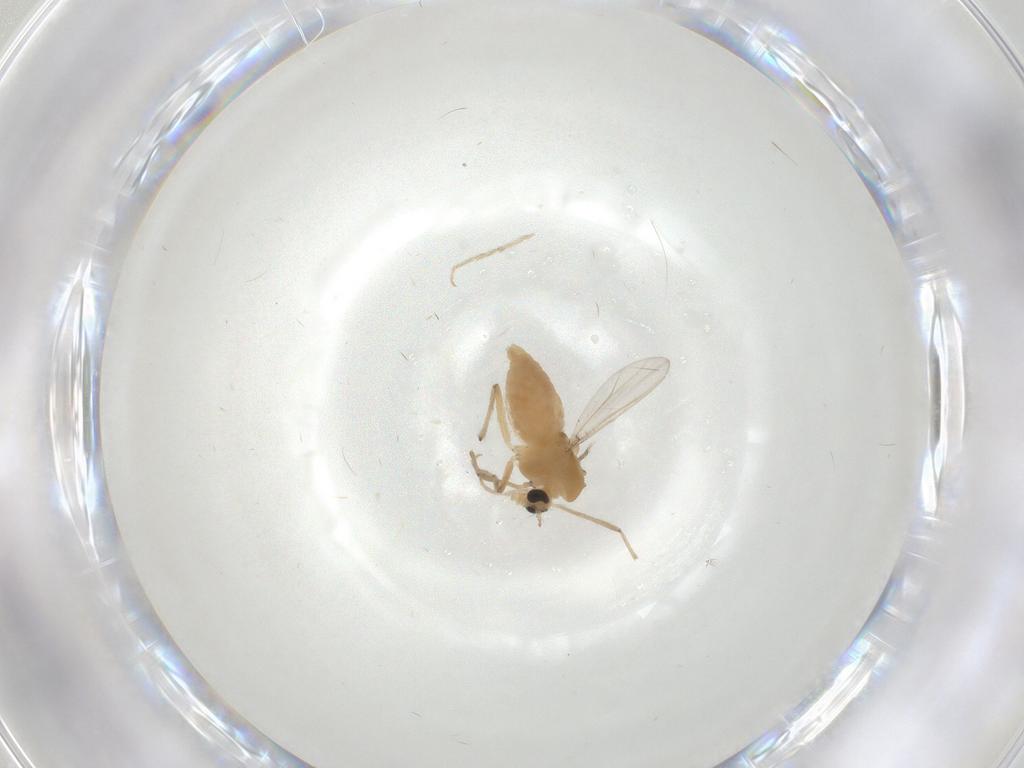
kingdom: Animalia
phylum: Arthropoda
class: Insecta
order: Diptera
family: Chironomidae
